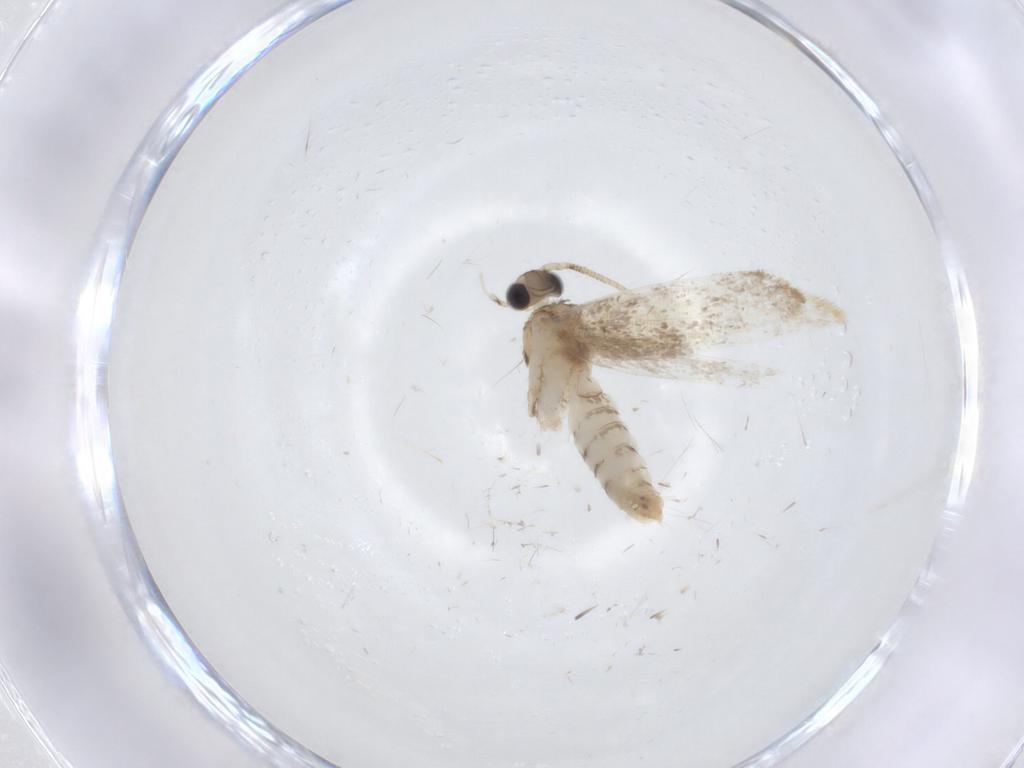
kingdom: Animalia
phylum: Arthropoda
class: Insecta
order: Lepidoptera
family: Dryadaulidae
